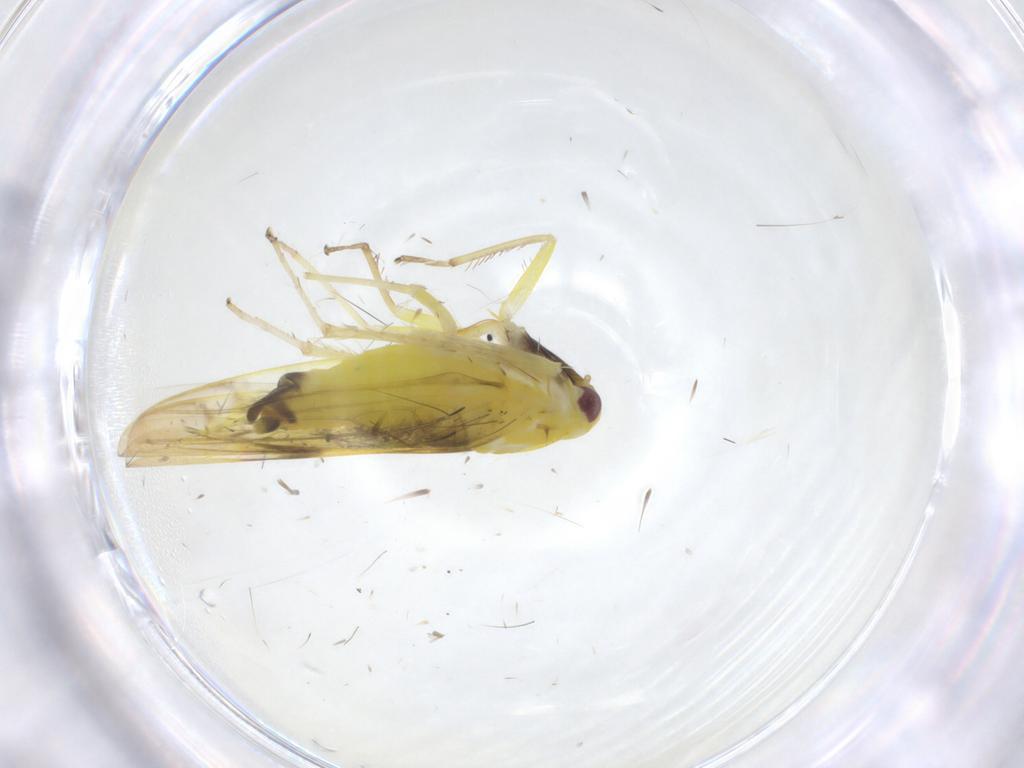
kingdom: Animalia
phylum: Arthropoda
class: Insecta
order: Hemiptera
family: Cicadellidae
